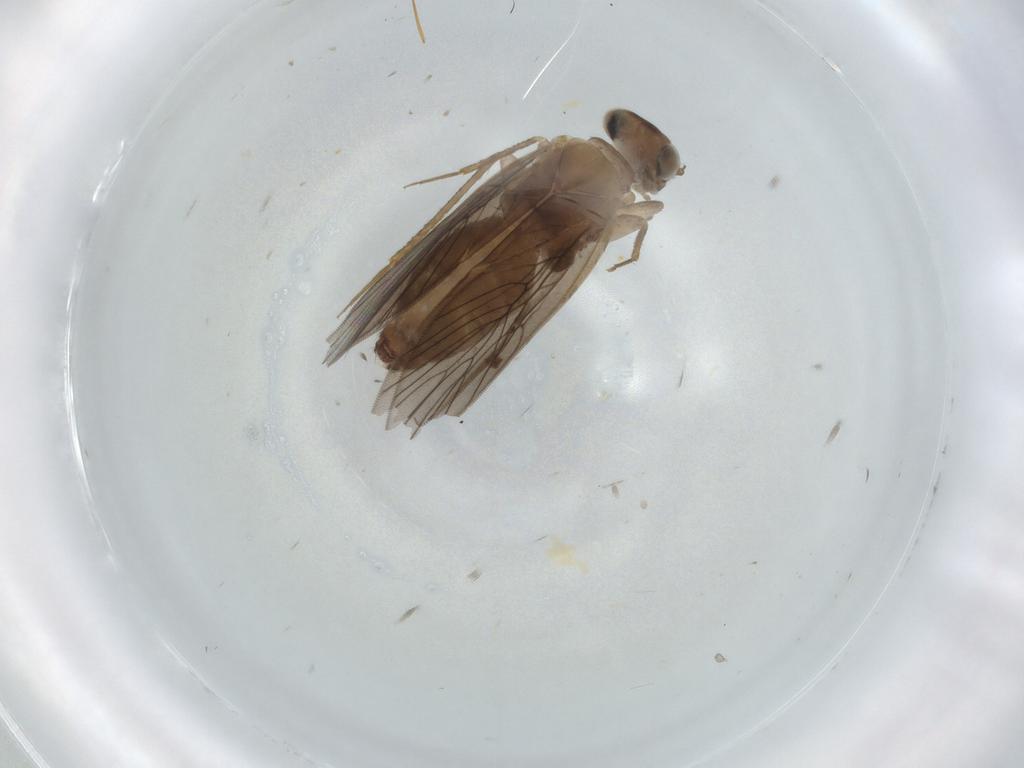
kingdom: Animalia
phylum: Arthropoda
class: Insecta
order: Psocodea
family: Lepidopsocidae
